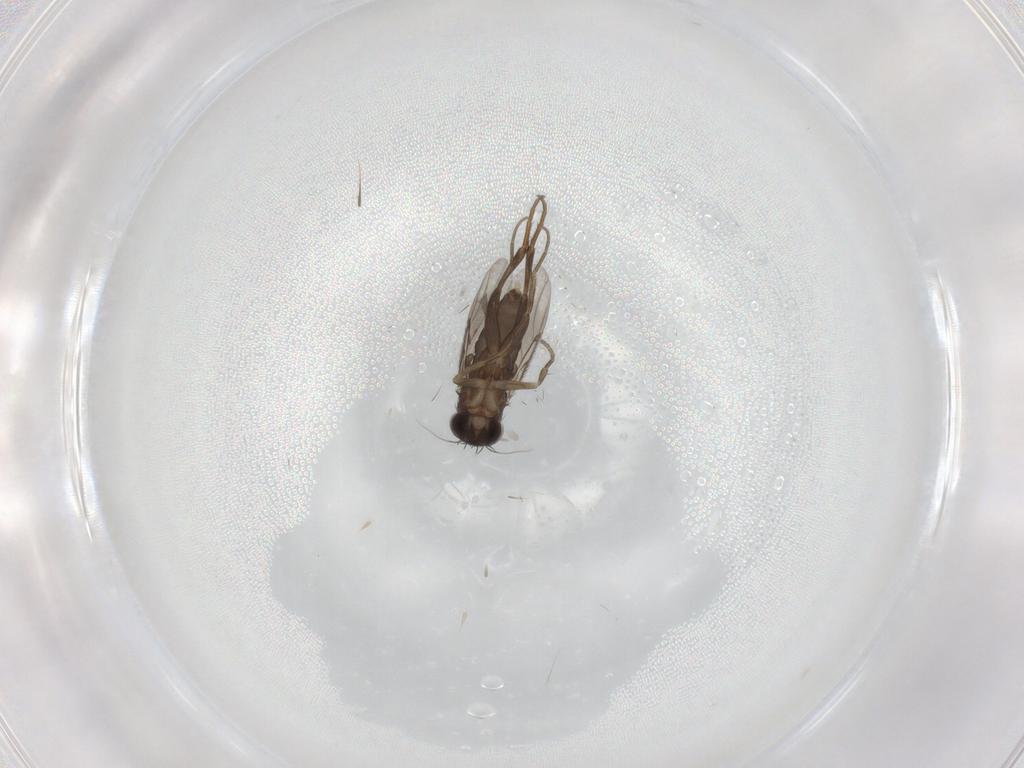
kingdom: Animalia
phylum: Arthropoda
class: Insecta
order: Diptera
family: Phoridae
